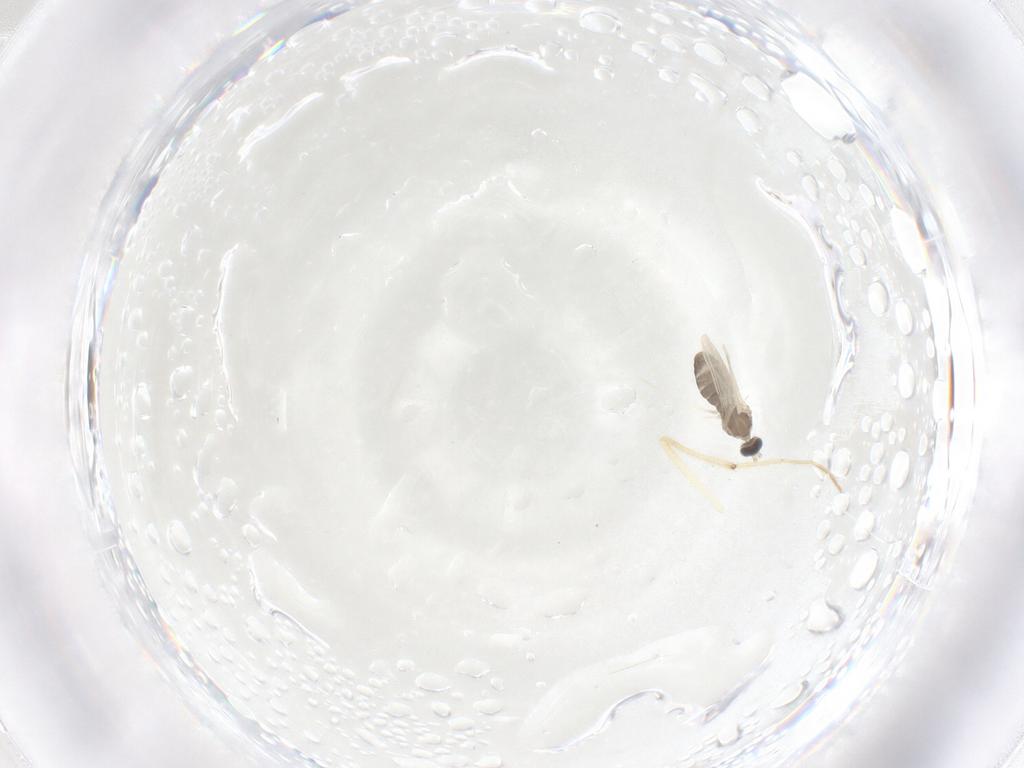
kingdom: Animalia
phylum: Arthropoda
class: Insecta
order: Diptera
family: Cecidomyiidae
